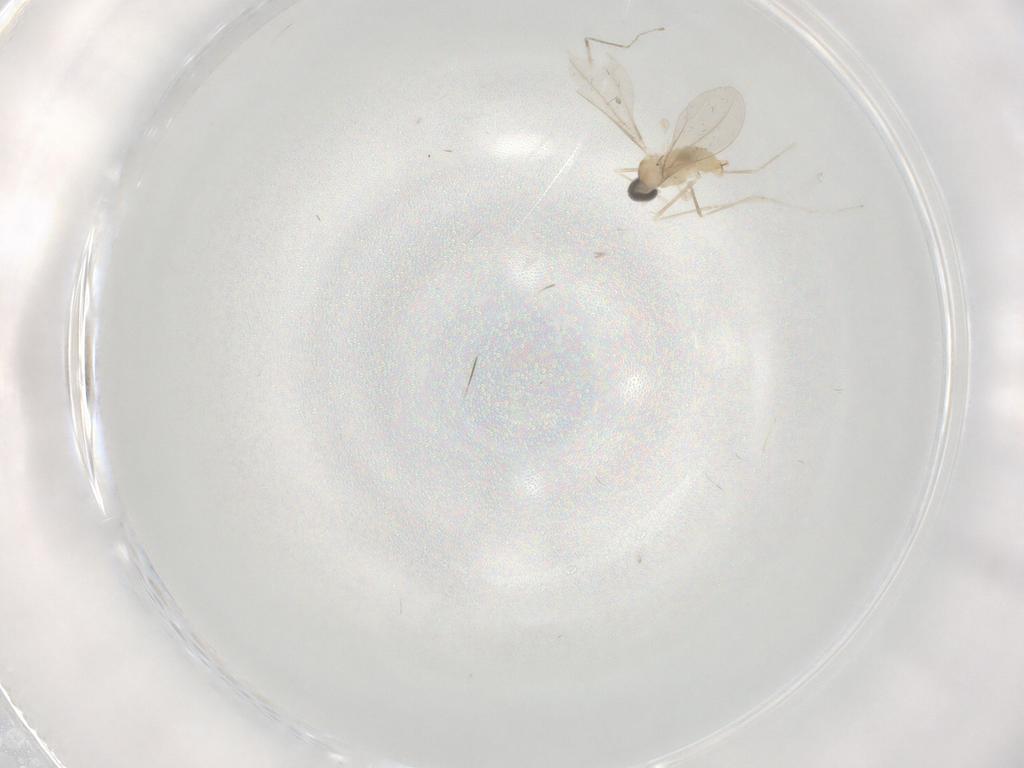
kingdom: Animalia
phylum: Arthropoda
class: Insecta
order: Diptera
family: Cecidomyiidae
